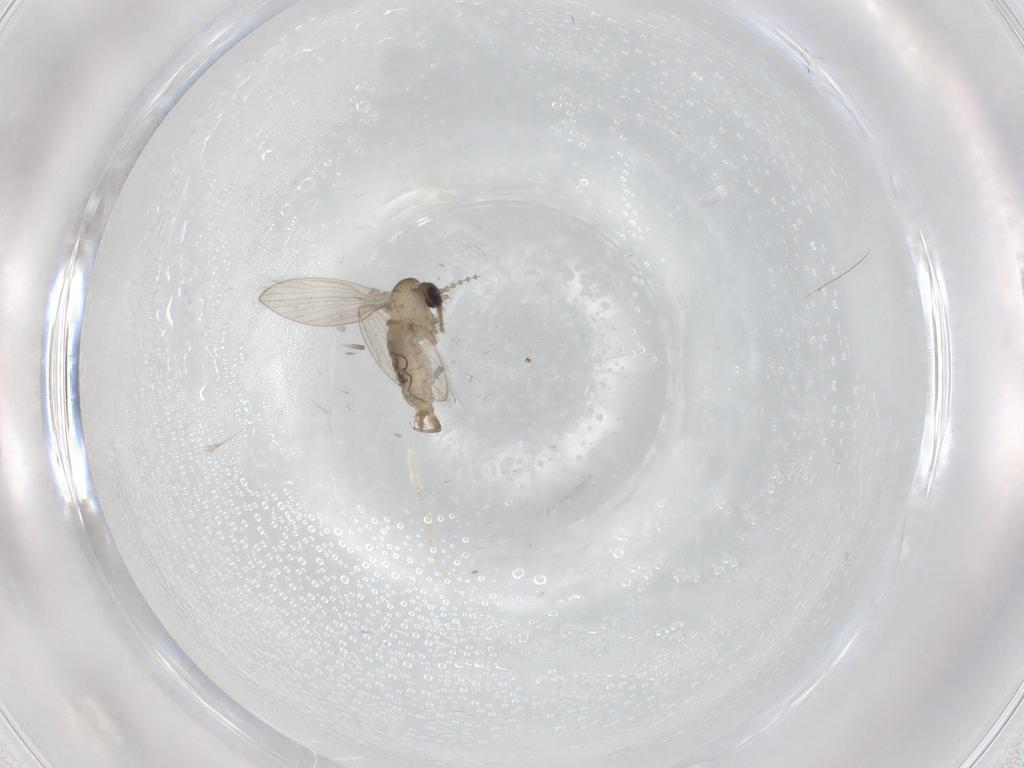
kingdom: Animalia
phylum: Arthropoda
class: Insecta
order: Diptera
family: Psychodidae
